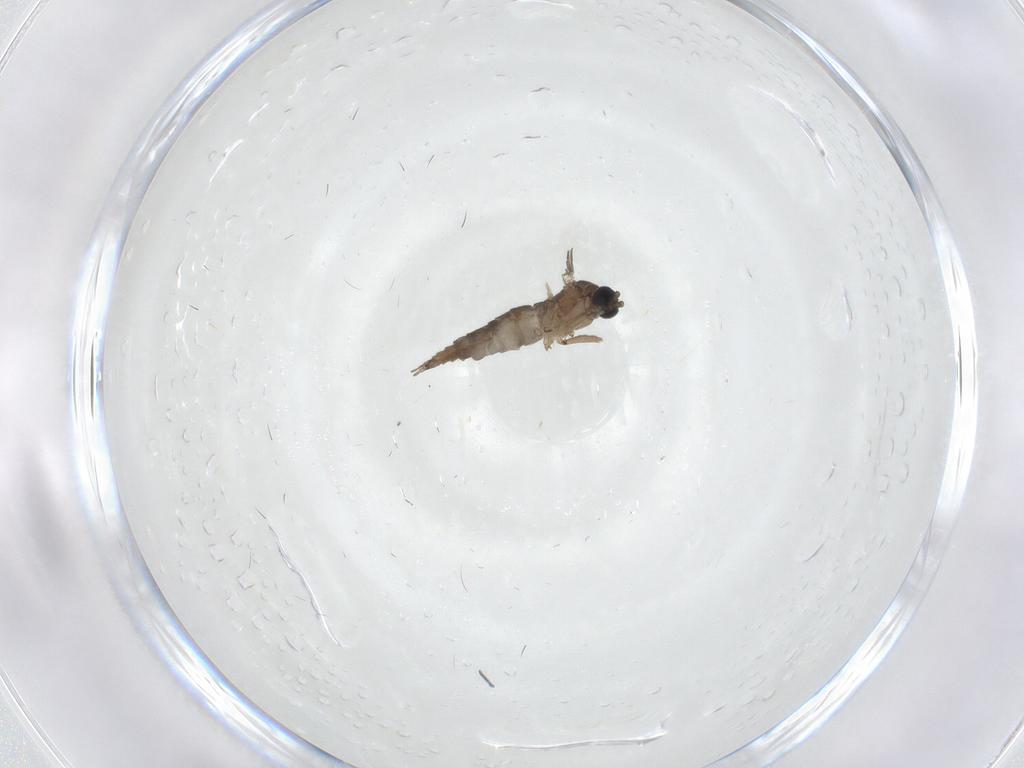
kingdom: Animalia
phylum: Arthropoda
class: Insecta
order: Diptera
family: Sciaridae
